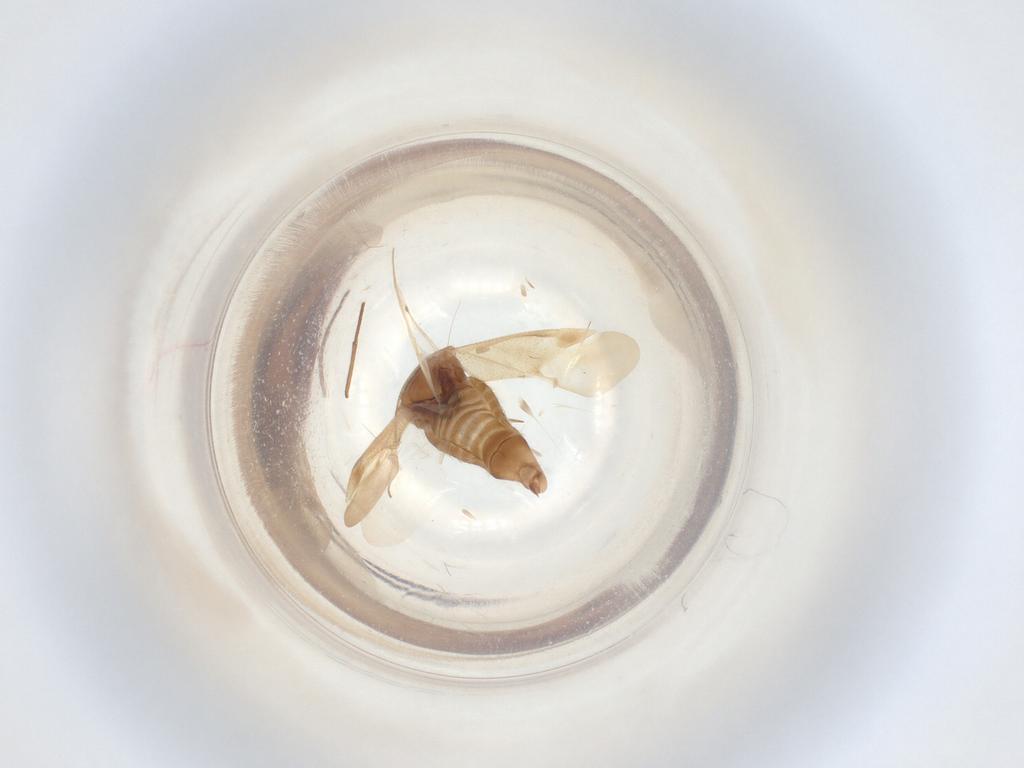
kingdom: Animalia
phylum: Arthropoda
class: Insecta
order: Diptera
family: Muscidae
